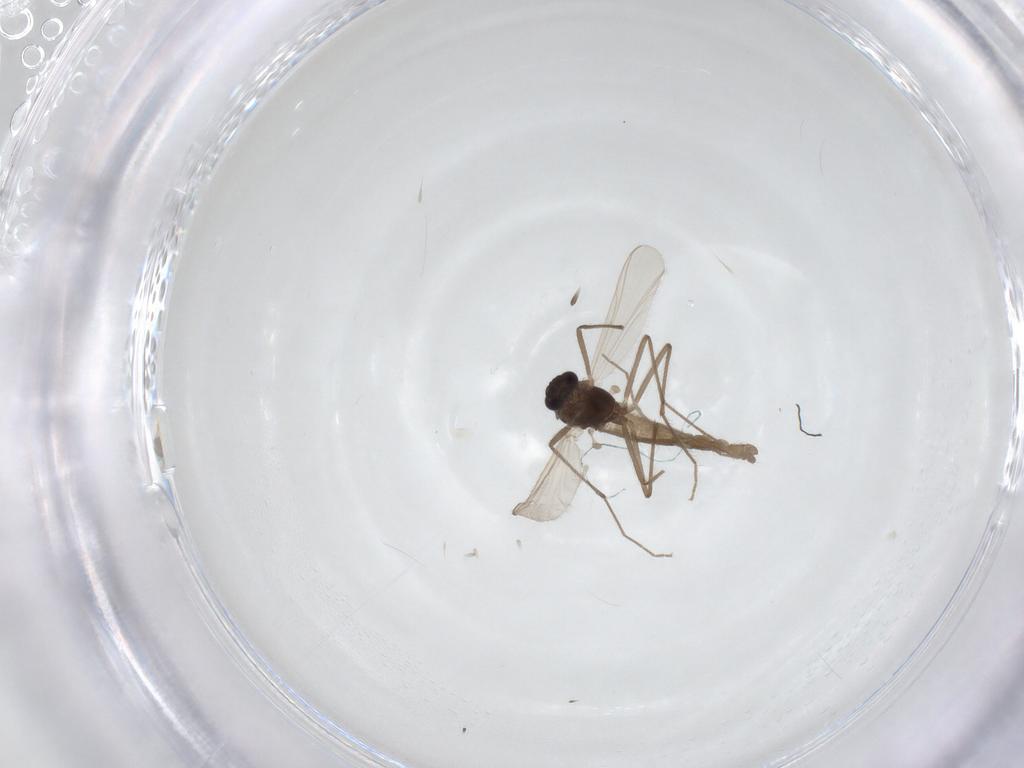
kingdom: Animalia
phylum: Arthropoda
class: Insecta
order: Diptera
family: Chironomidae
